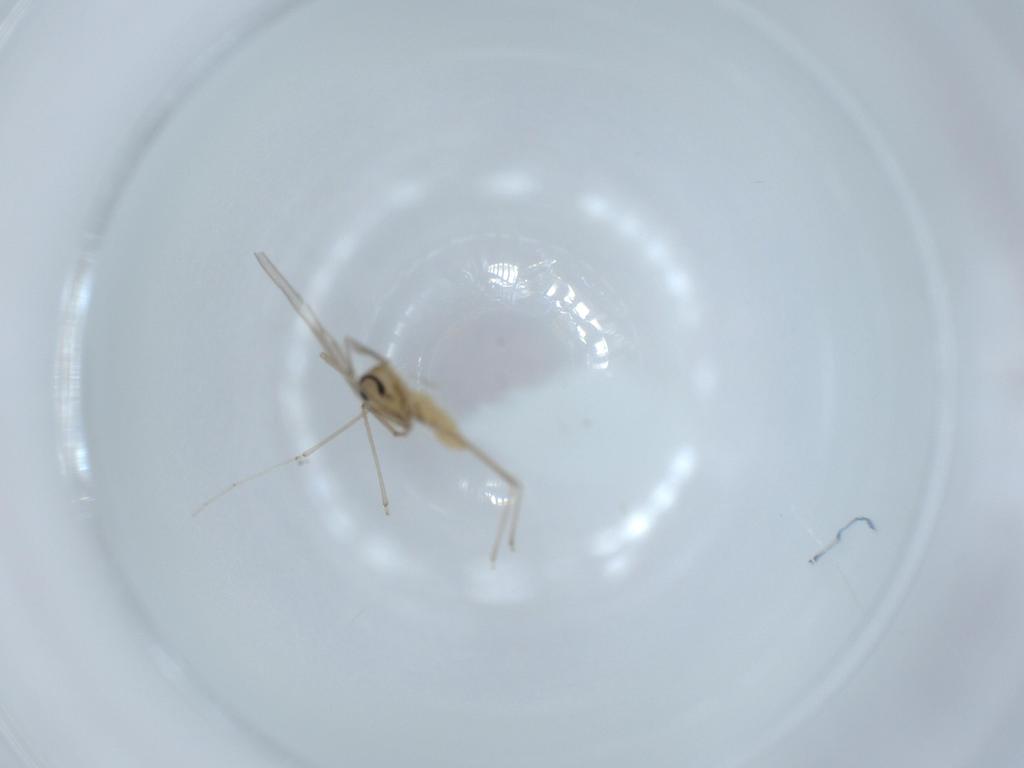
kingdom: Animalia
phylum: Arthropoda
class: Insecta
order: Diptera
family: Cecidomyiidae
